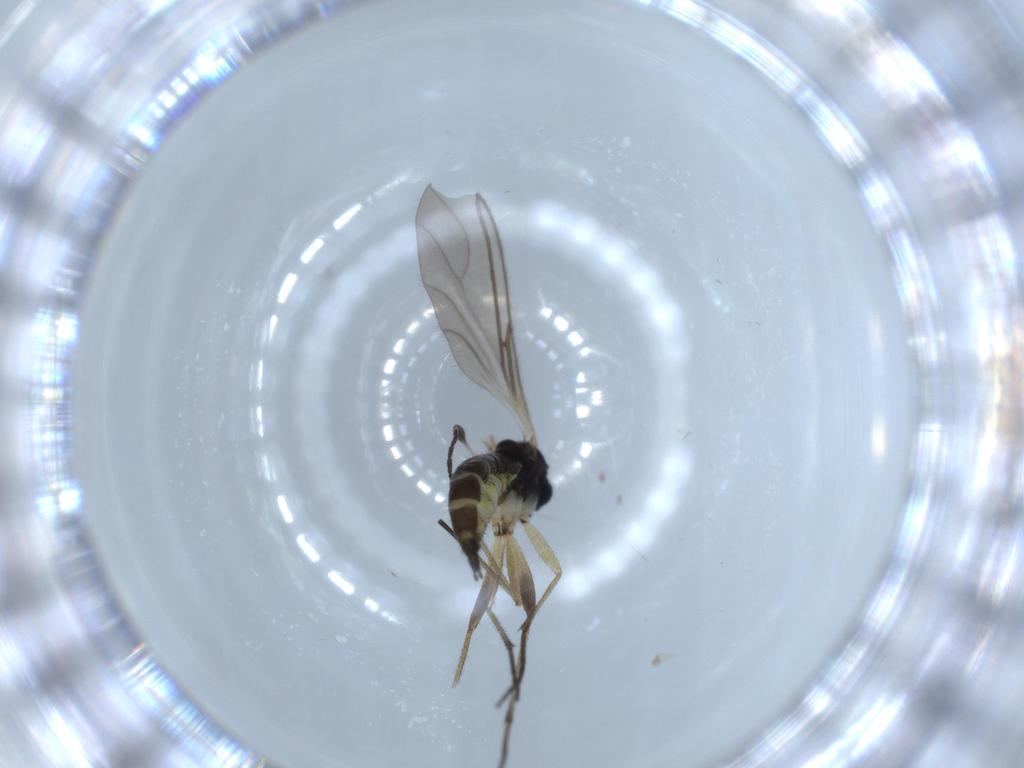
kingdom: Animalia
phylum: Arthropoda
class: Insecta
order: Diptera
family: Sciaridae
